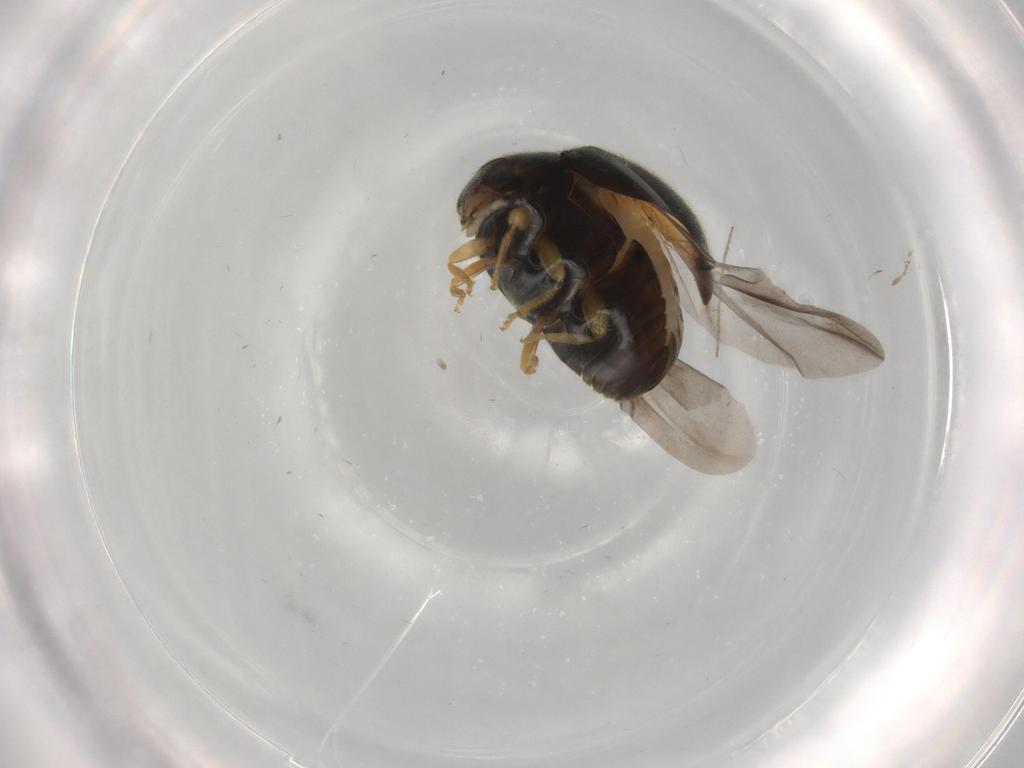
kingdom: Animalia
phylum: Arthropoda
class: Insecta
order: Coleoptera
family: Coccinellidae
